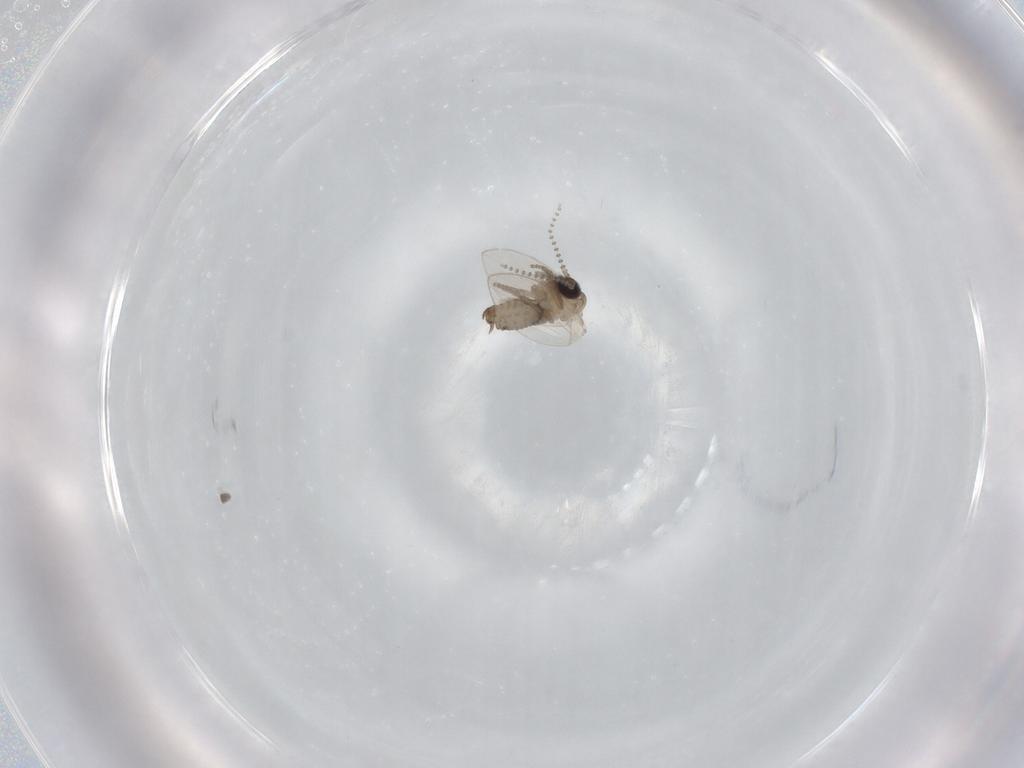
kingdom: Animalia
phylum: Arthropoda
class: Insecta
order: Diptera
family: Psychodidae
